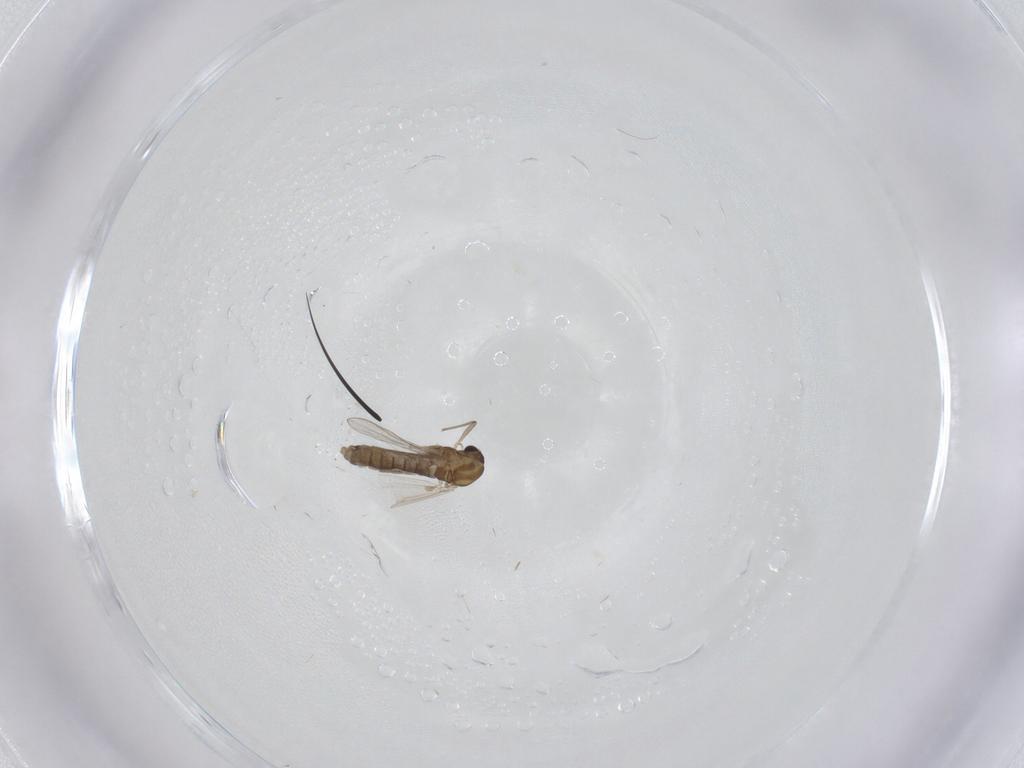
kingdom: Animalia
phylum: Arthropoda
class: Insecta
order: Diptera
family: Chironomidae
